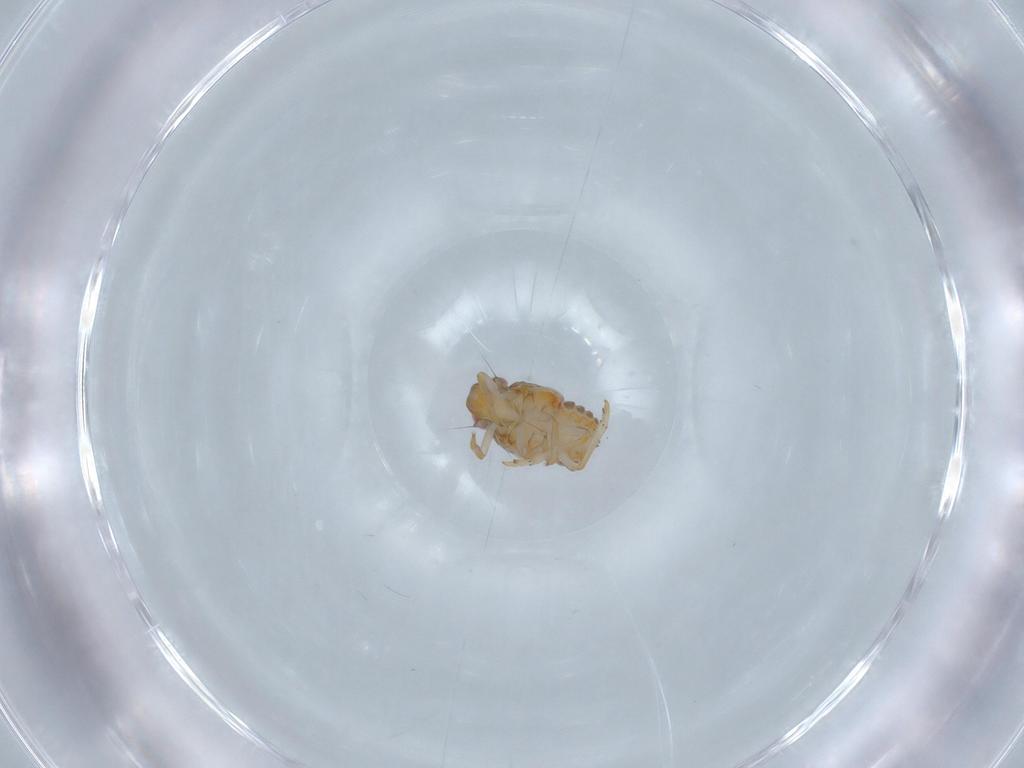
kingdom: Animalia
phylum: Arthropoda
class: Insecta
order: Hemiptera
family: Issidae
